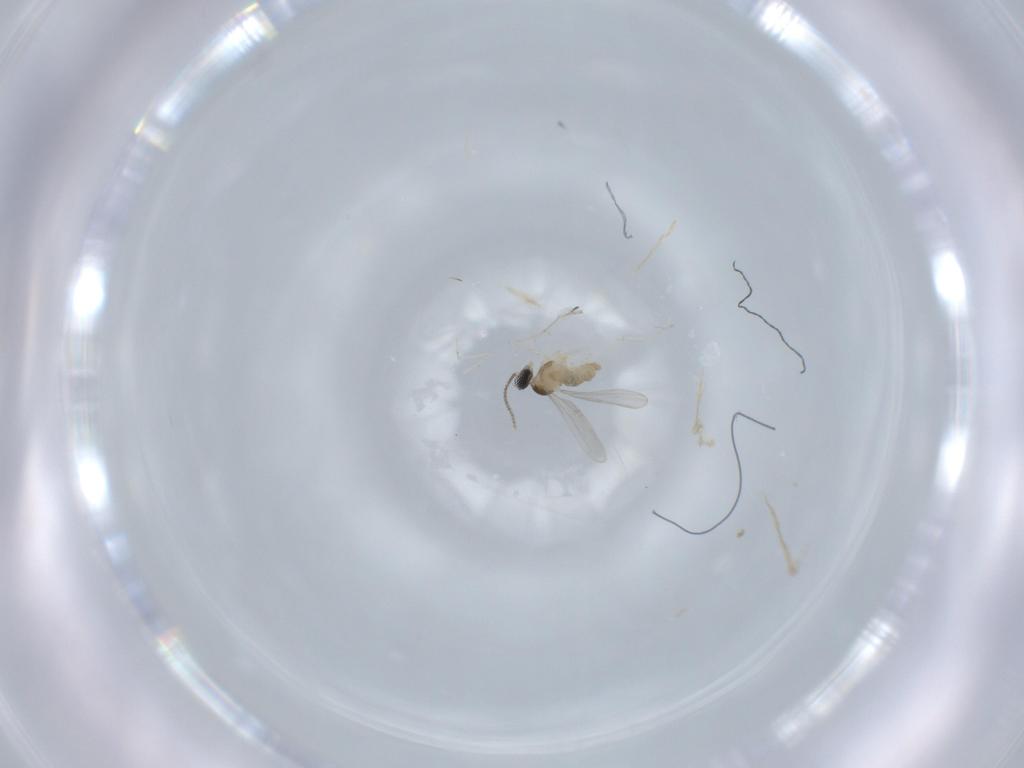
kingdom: Animalia
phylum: Arthropoda
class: Insecta
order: Diptera
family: Cecidomyiidae
